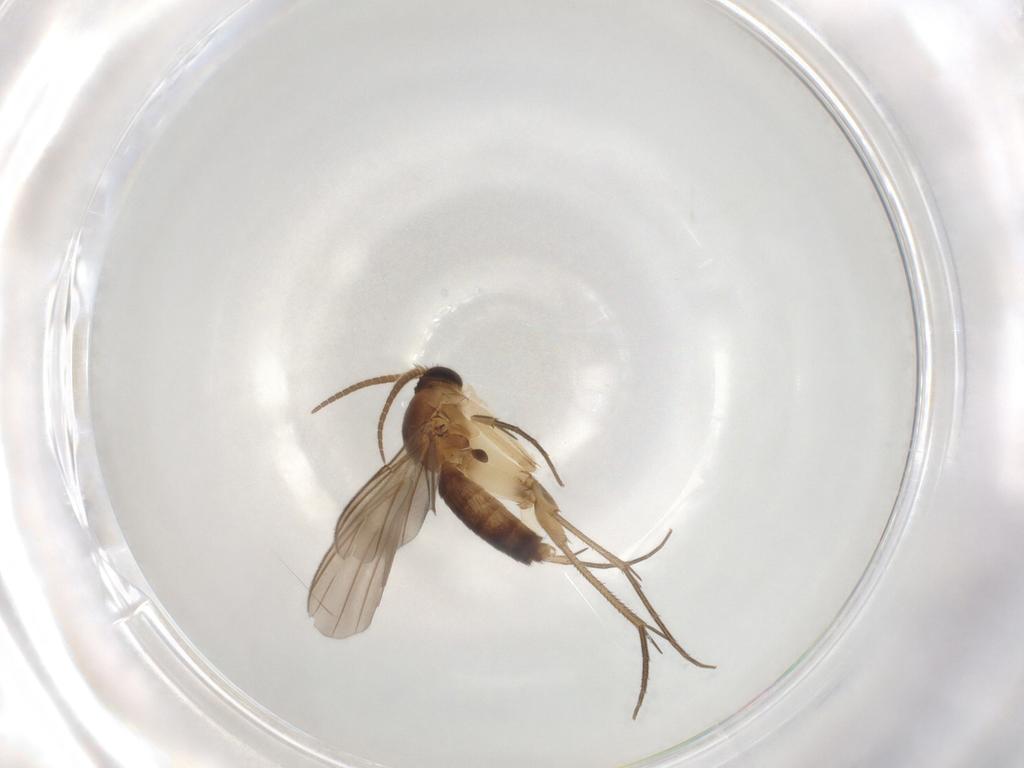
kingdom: Animalia
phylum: Arthropoda
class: Insecta
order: Diptera
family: Mycetophilidae
